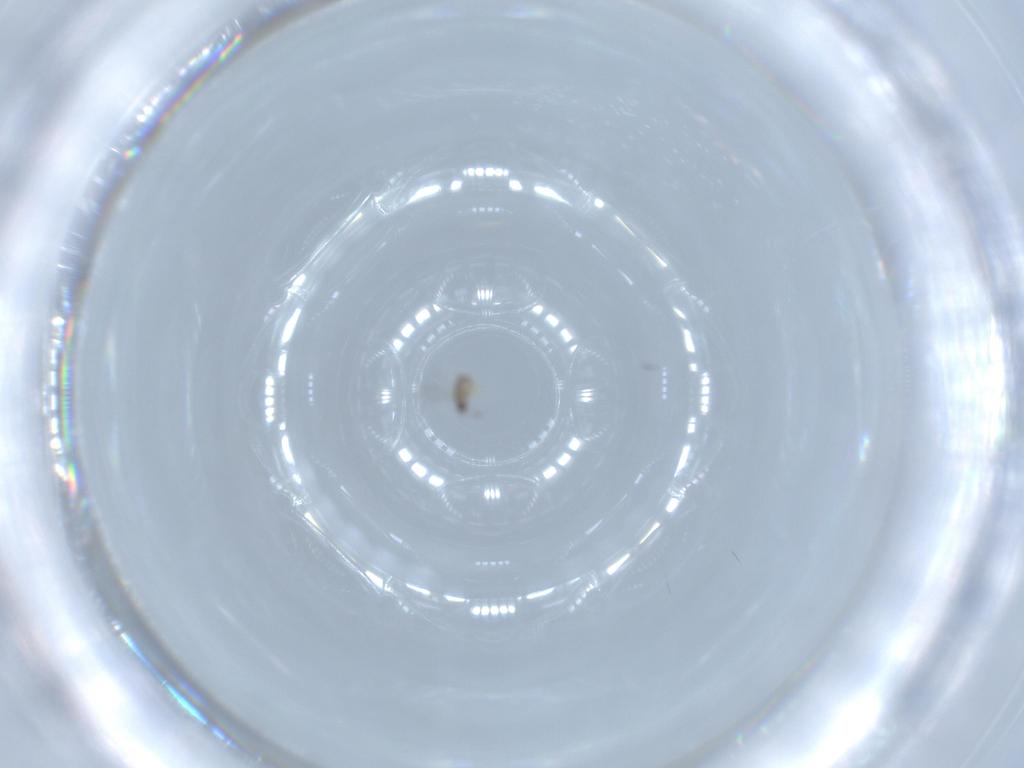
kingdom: Animalia
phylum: Arthropoda
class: Insecta
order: Hymenoptera
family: Mymaridae
